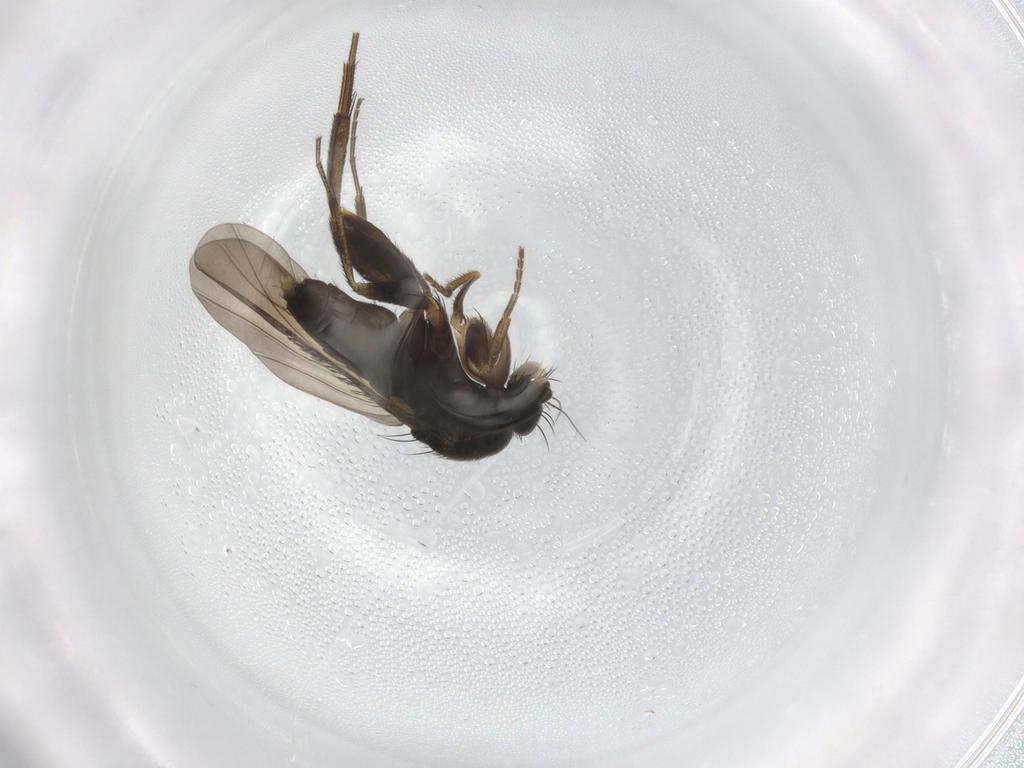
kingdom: Animalia
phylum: Arthropoda
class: Insecta
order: Diptera
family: Phoridae
